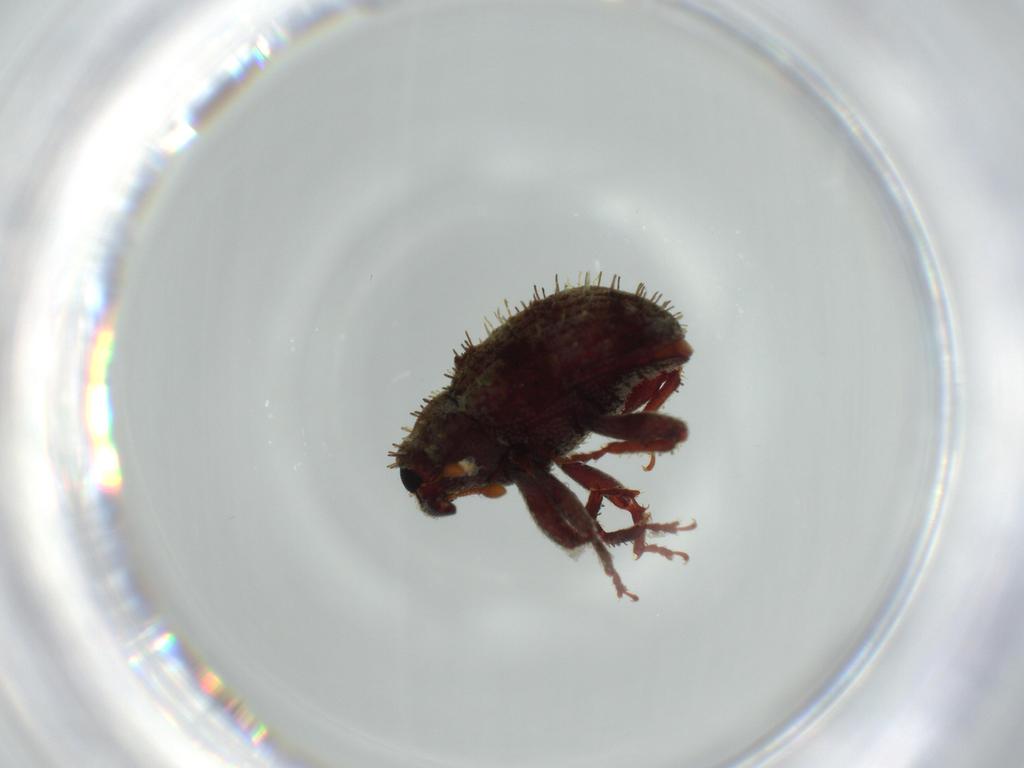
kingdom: Animalia
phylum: Arthropoda
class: Insecta
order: Coleoptera
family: Curculionidae
